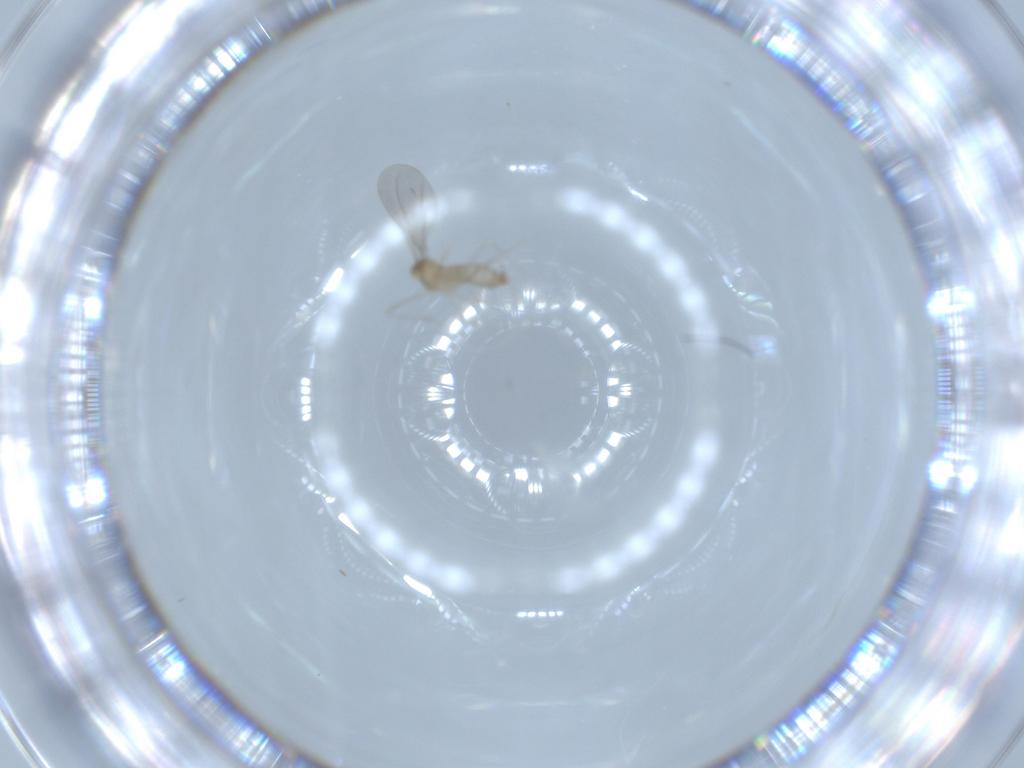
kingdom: Animalia
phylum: Arthropoda
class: Insecta
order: Diptera
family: Cecidomyiidae
